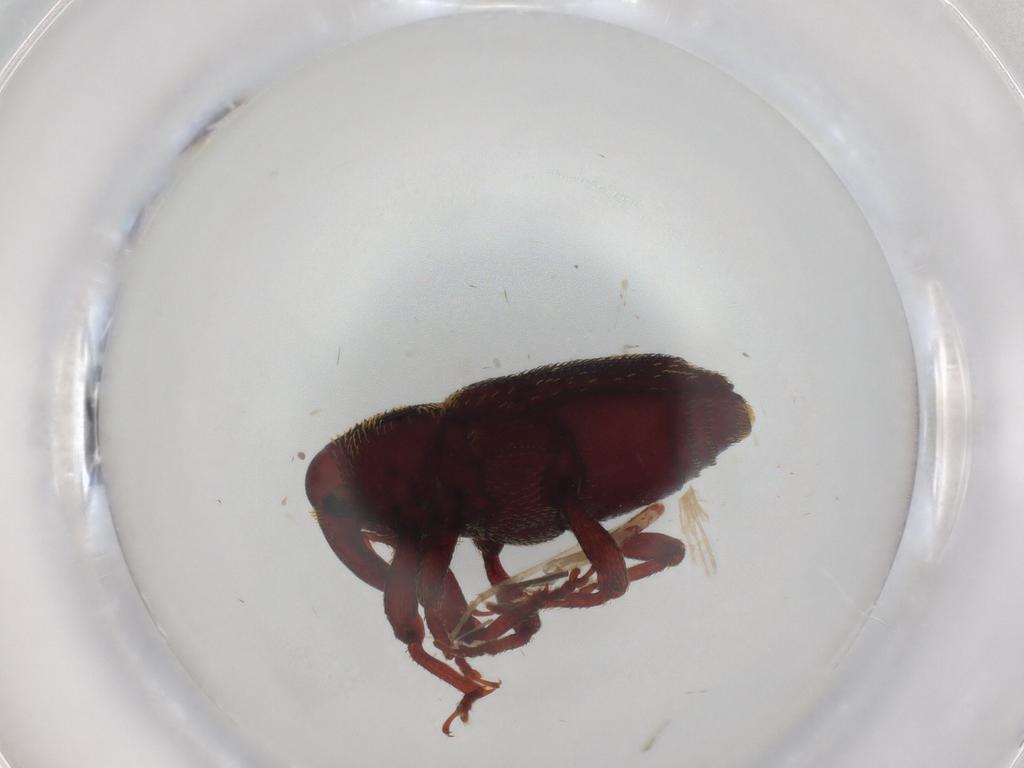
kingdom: Animalia
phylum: Arthropoda
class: Insecta
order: Coleoptera
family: Curculionidae
